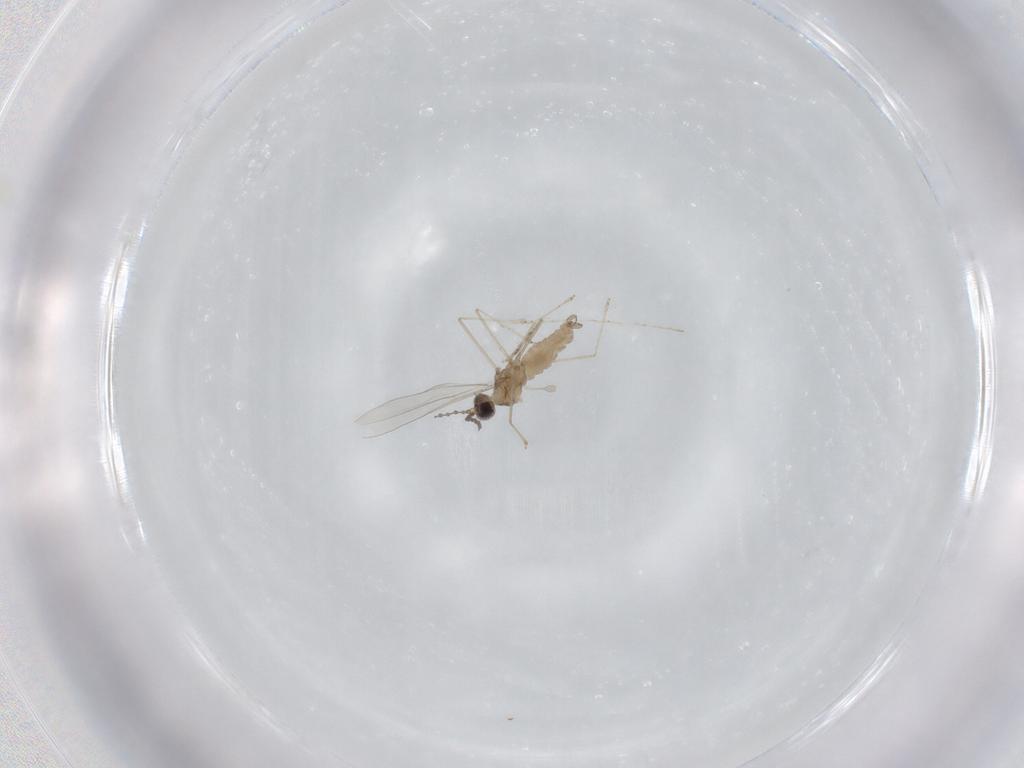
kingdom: Animalia
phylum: Arthropoda
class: Insecta
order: Diptera
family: Cecidomyiidae
